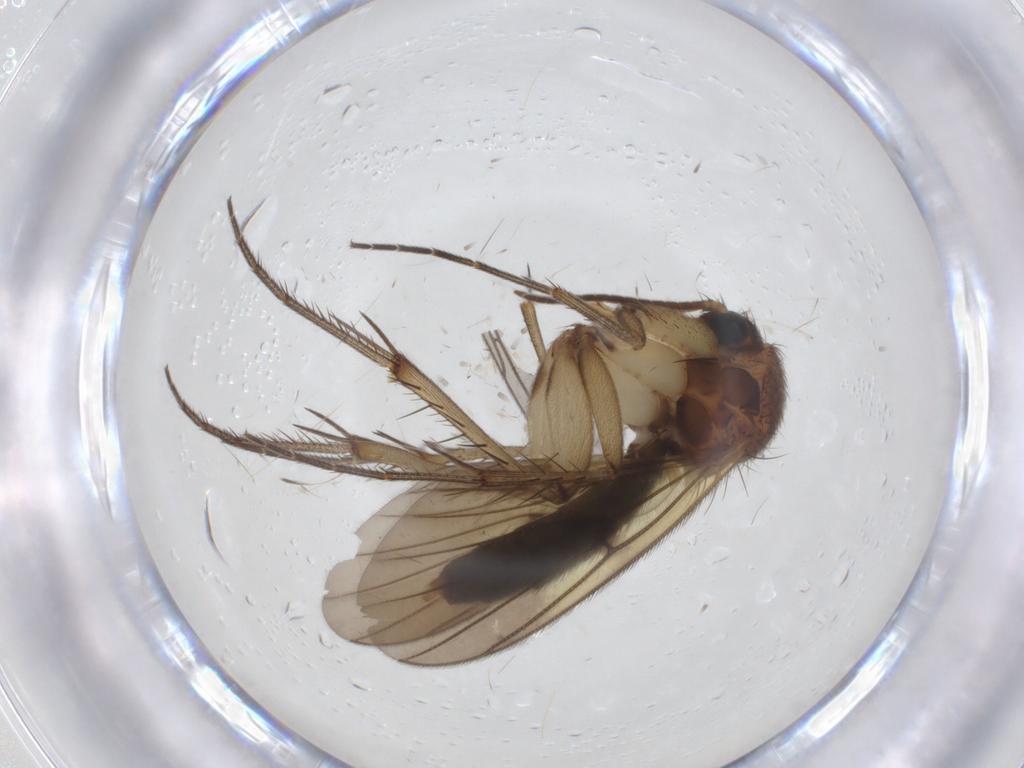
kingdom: Animalia
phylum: Arthropoda
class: Insecta
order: Diptera
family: Mycetophilidae
